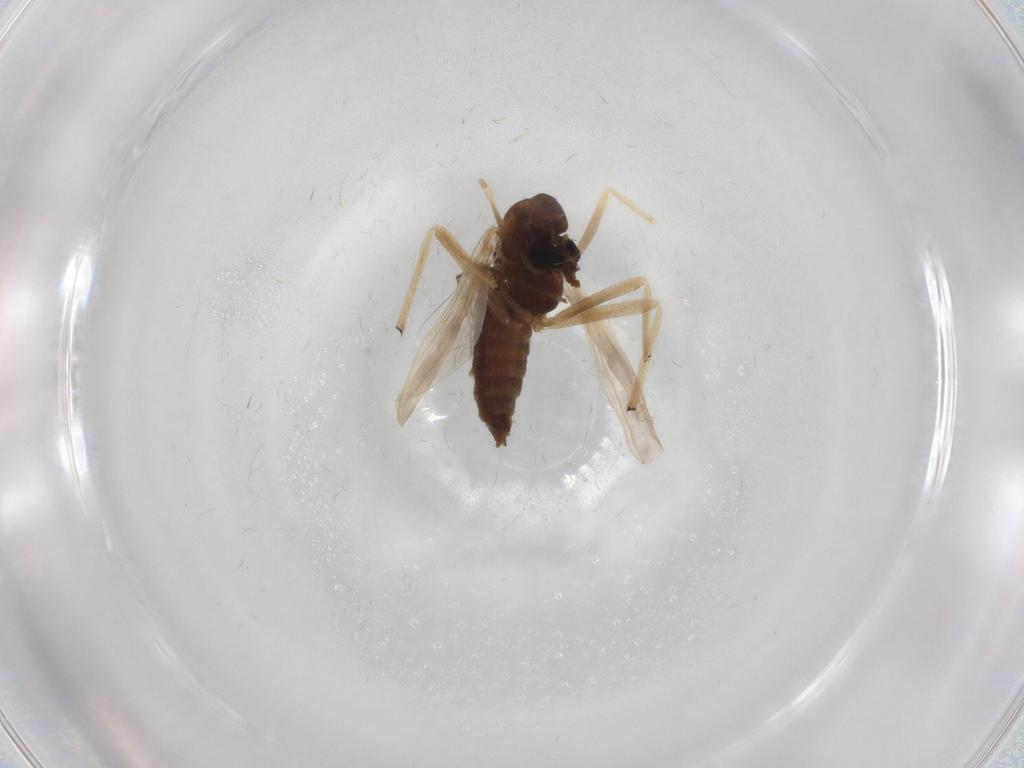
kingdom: Animalia
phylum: Arthropoda
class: Insecta
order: Diptera
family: Chironomidae
